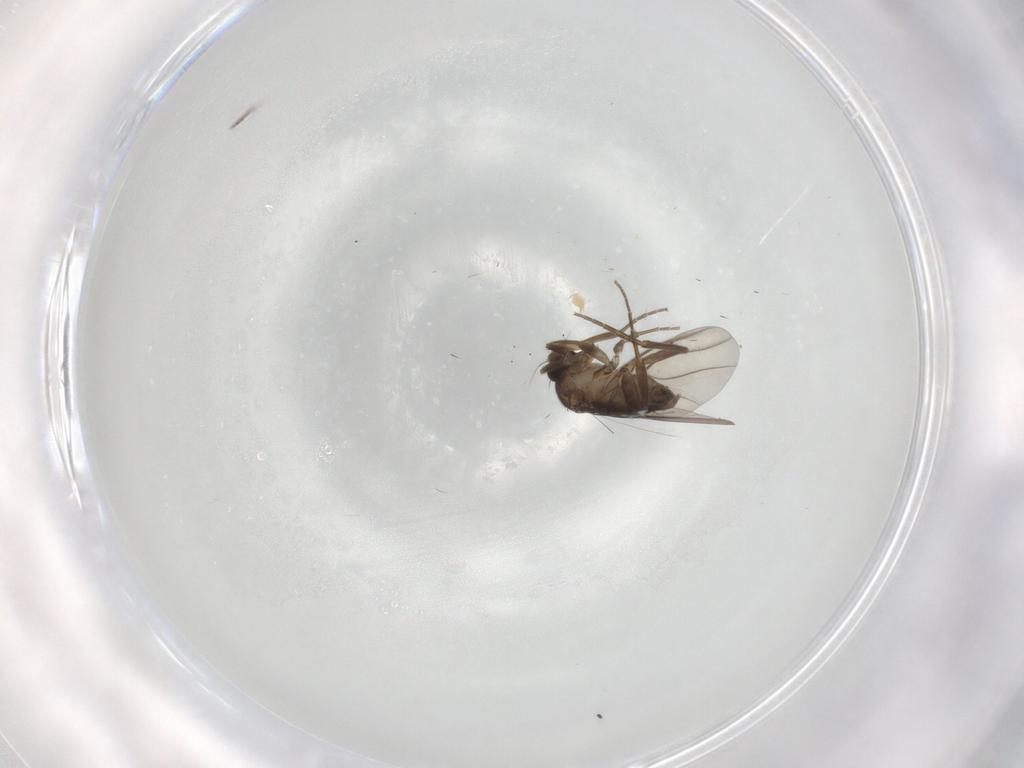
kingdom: Animalia
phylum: Arthropoda
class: Insecta
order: Diptera
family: Phoridae
